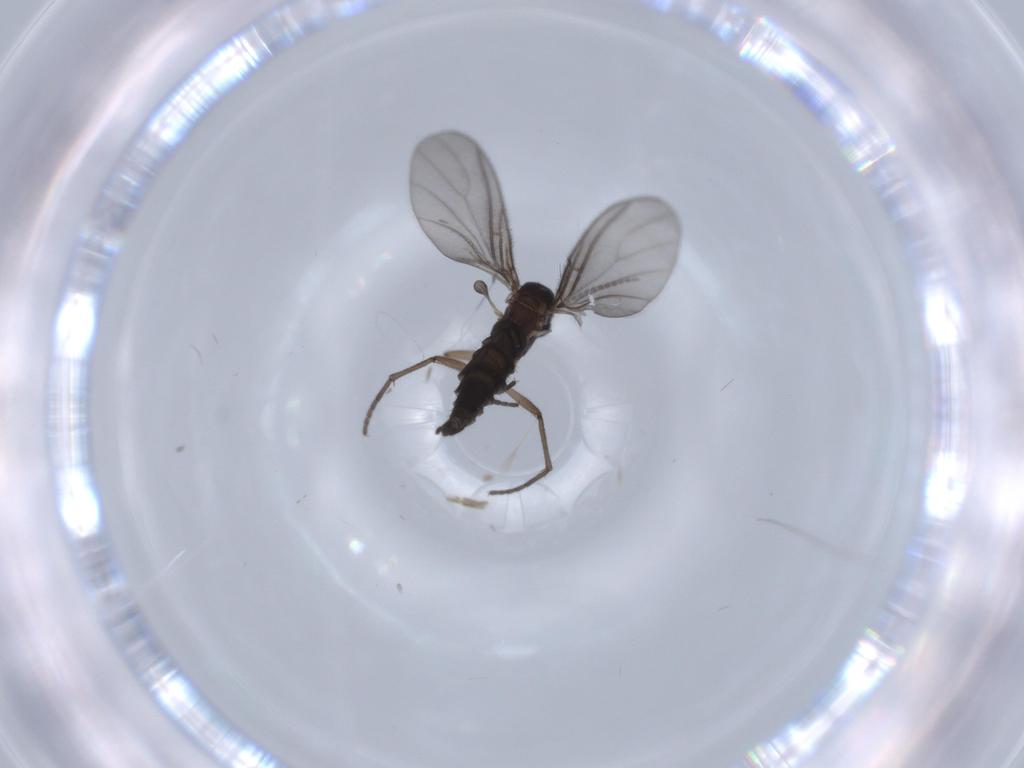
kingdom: Animalia
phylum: Arthropoda
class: Insecta
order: Diptera
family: Sciaridae
